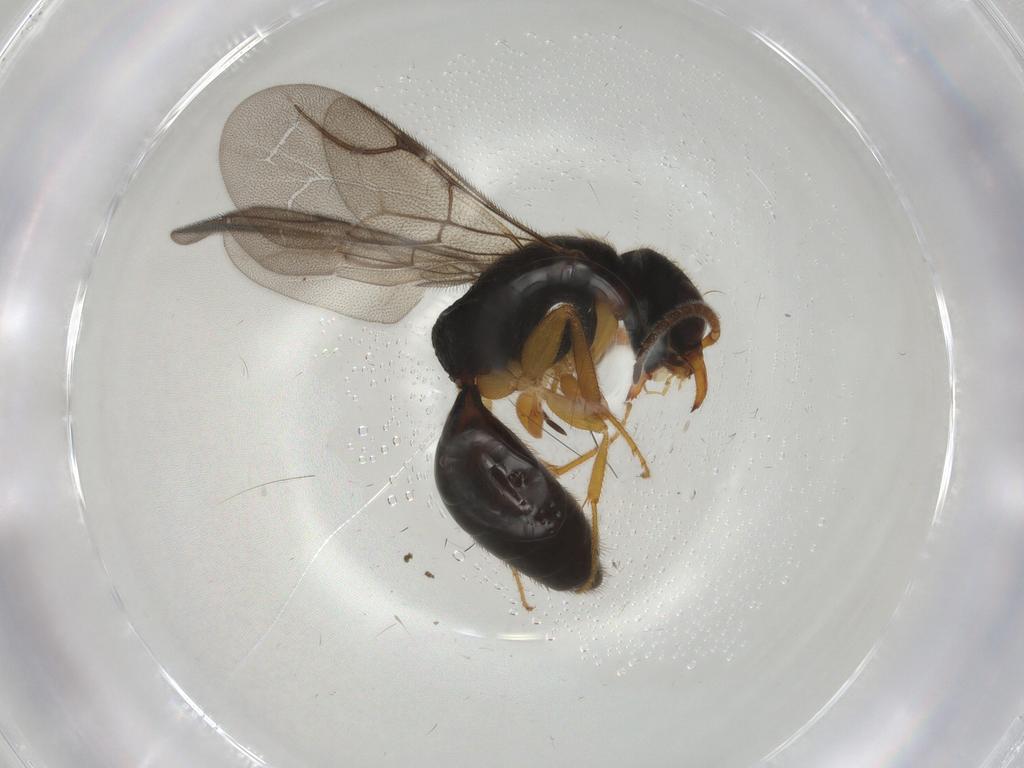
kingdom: Animalia
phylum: Arthropoda
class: Insecta
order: Hymenoptera
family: Bethylidae
